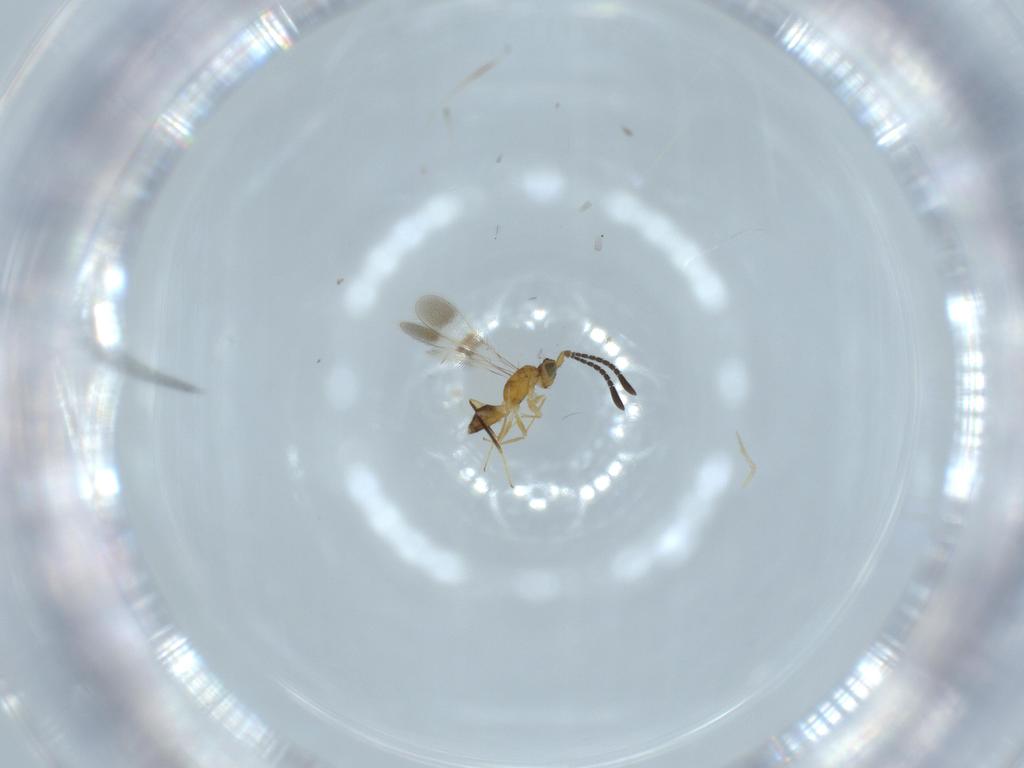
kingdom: Animalia
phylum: Arthropoda
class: Insecta
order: Hymenoptera
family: Mymaridae
